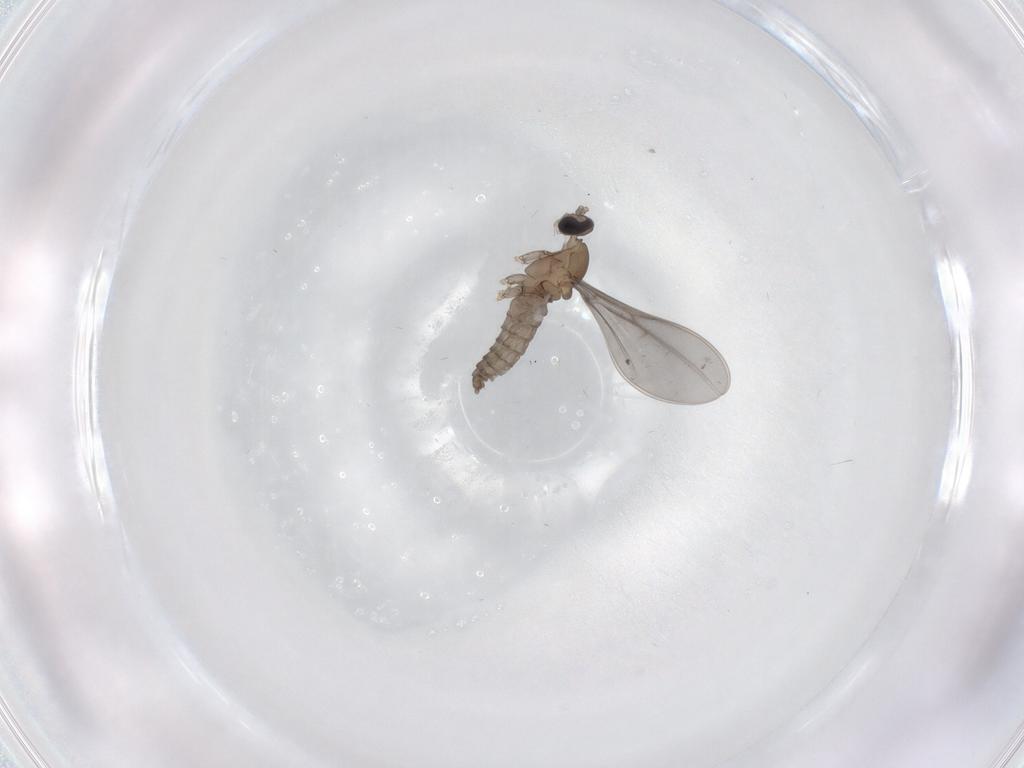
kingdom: Animalia
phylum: Arthropoda
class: Insecta
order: Diptera
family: Cecidomyiidae
